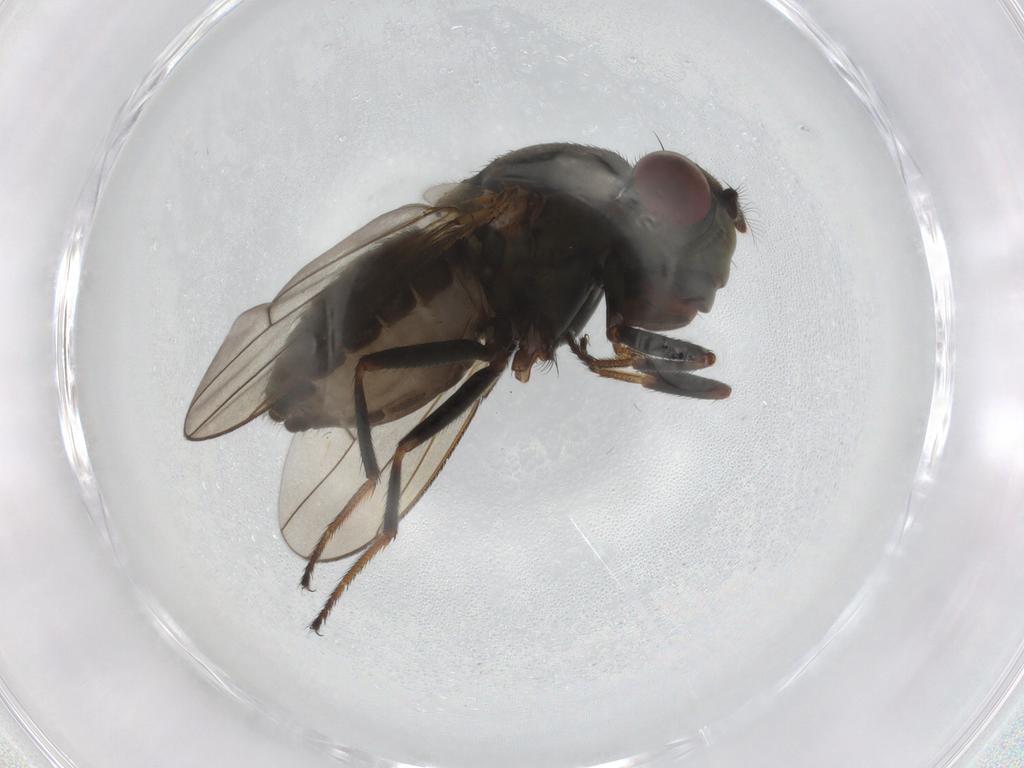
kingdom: Animalia
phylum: Arthropoda
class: Insecta
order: Diptera
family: Ephydridae
